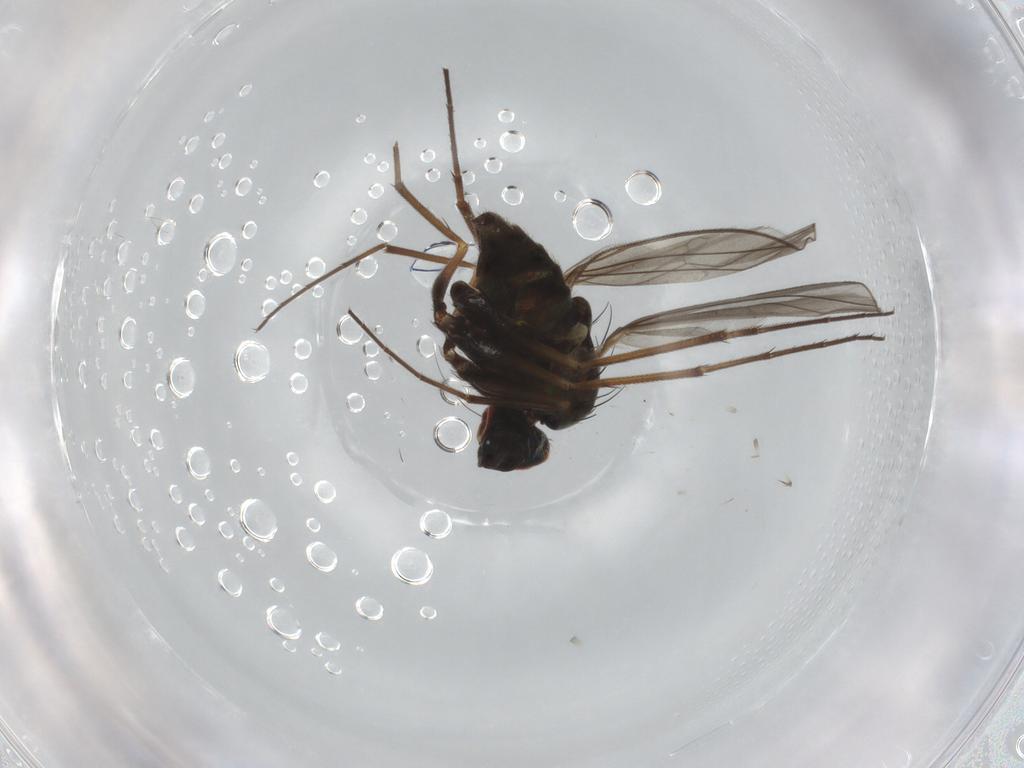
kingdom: Animalia
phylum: Arthropoda
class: Insecta
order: Diptera
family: Dolichopodidae
